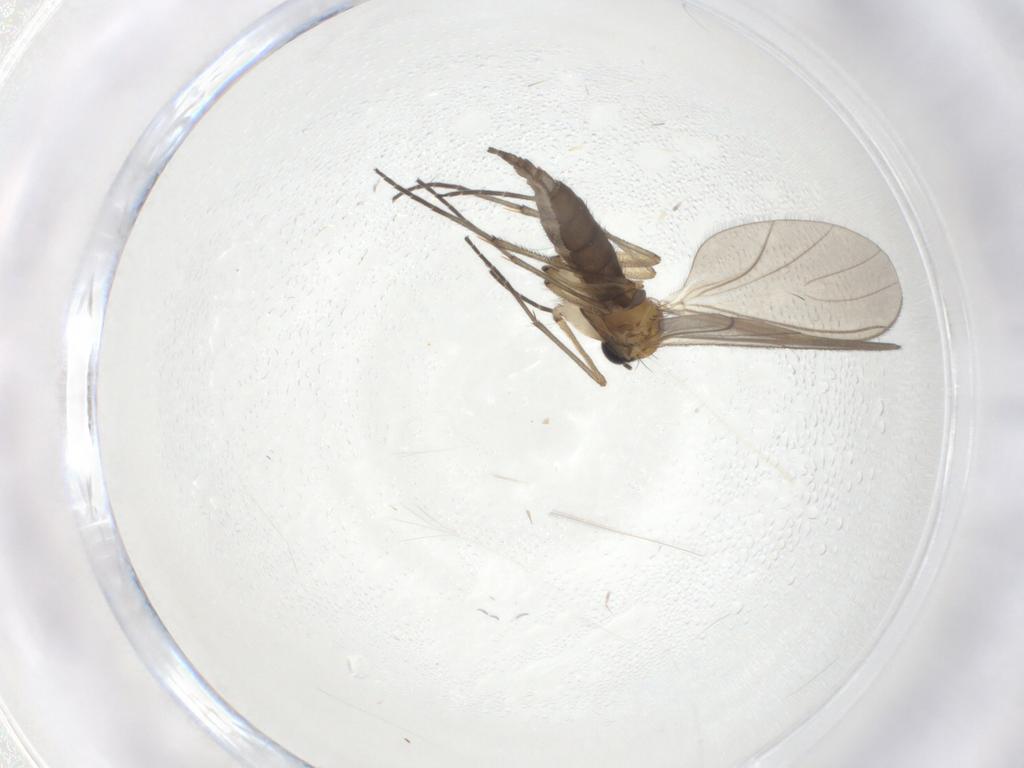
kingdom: Animalia
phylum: Arthropoda
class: Insecta
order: Diptera
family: Sciaridae
